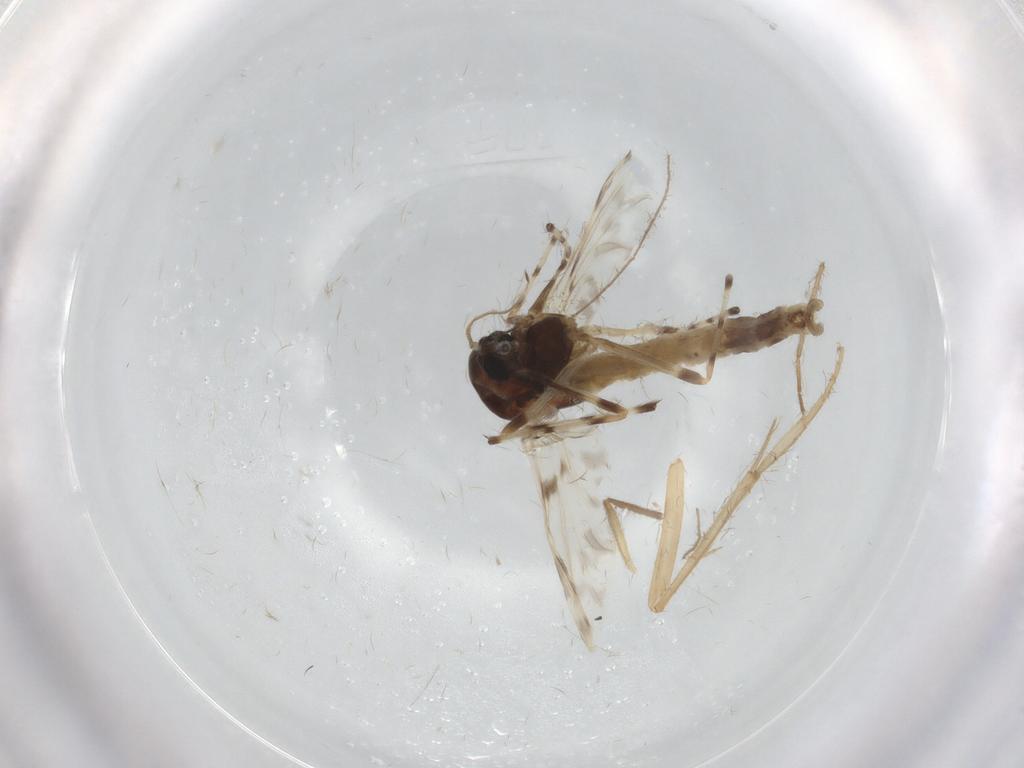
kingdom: Animalia
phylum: Arthropoda
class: Insecta
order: Diptera
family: Chironomidae
